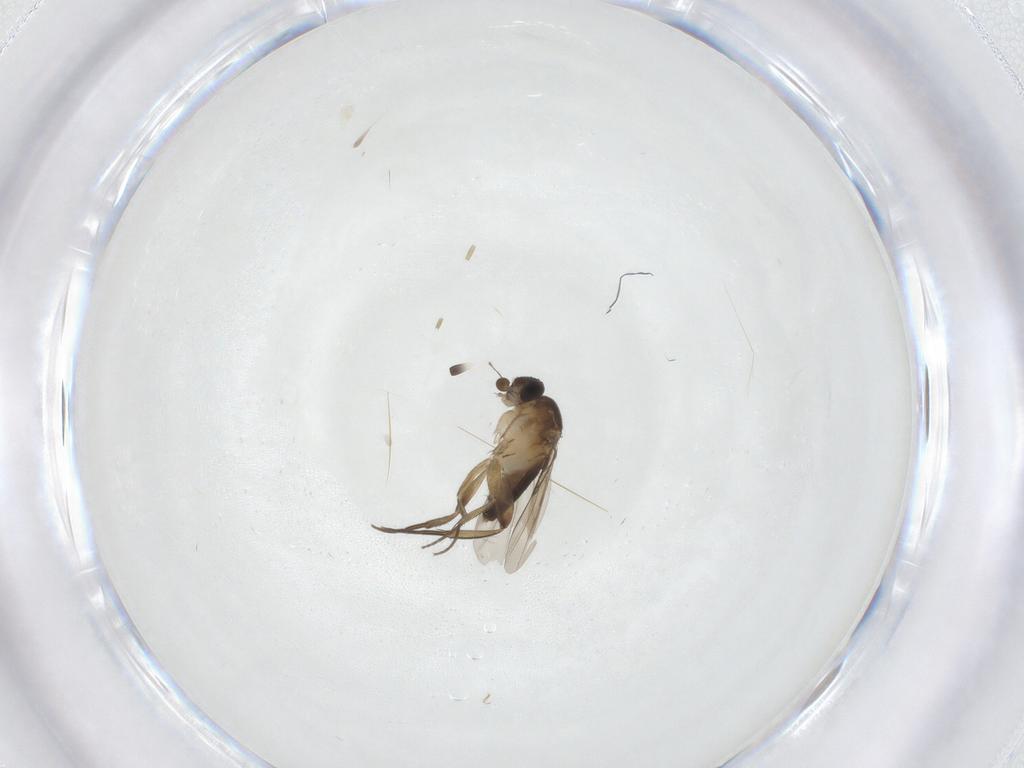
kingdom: Animalia
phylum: Arthropoda
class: Insecta
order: Diptera
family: Phoridae
